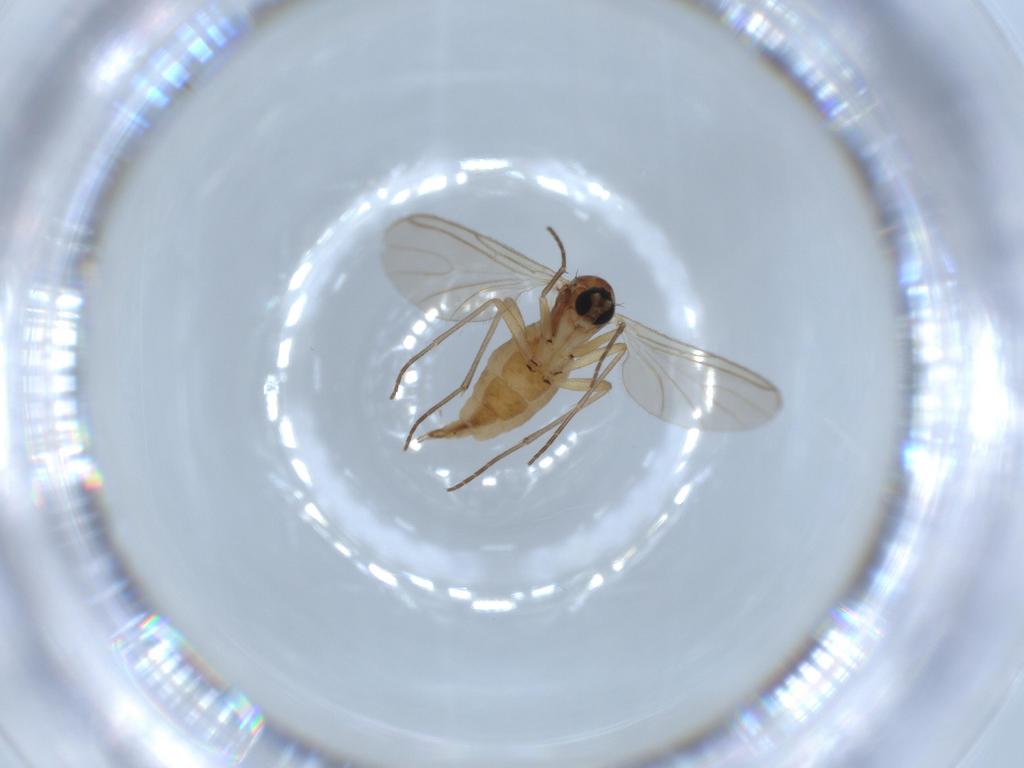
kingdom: Animalia
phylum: Arthropoda
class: Insecta
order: Diptera
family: Sciaridae
